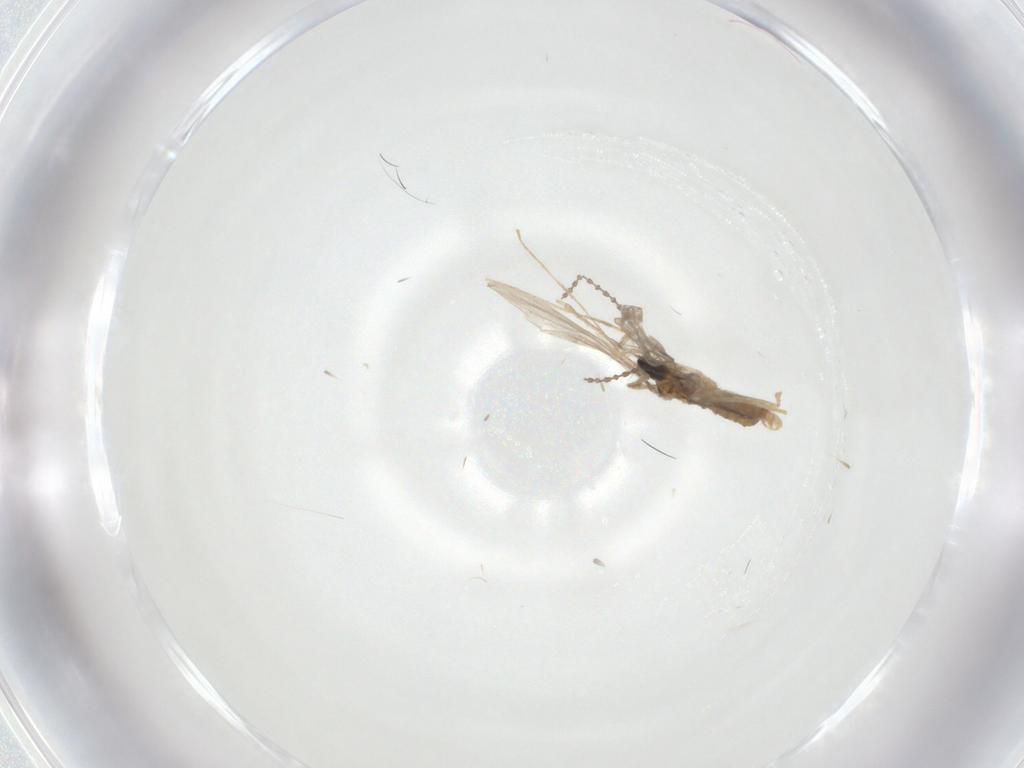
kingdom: Animalia
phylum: Arthropoda
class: Insecta
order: Diptera
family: Cecidomyiidae
